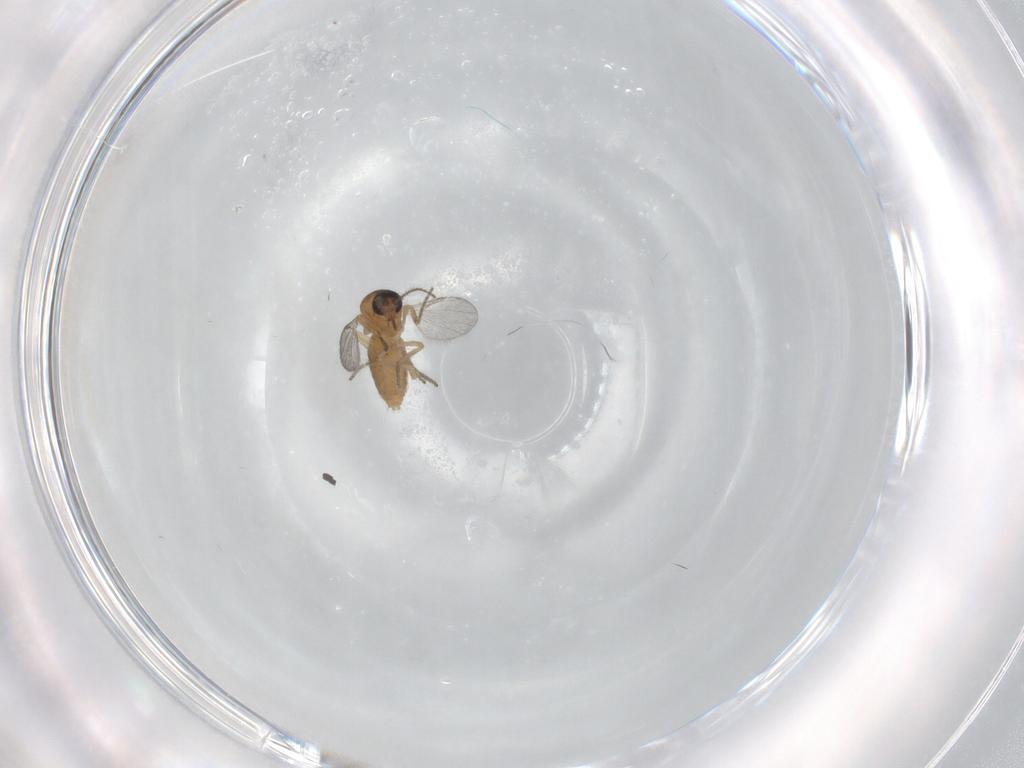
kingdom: Animalia
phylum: Arthropoda
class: Insecta
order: Diptera
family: Ceratopogonidae
